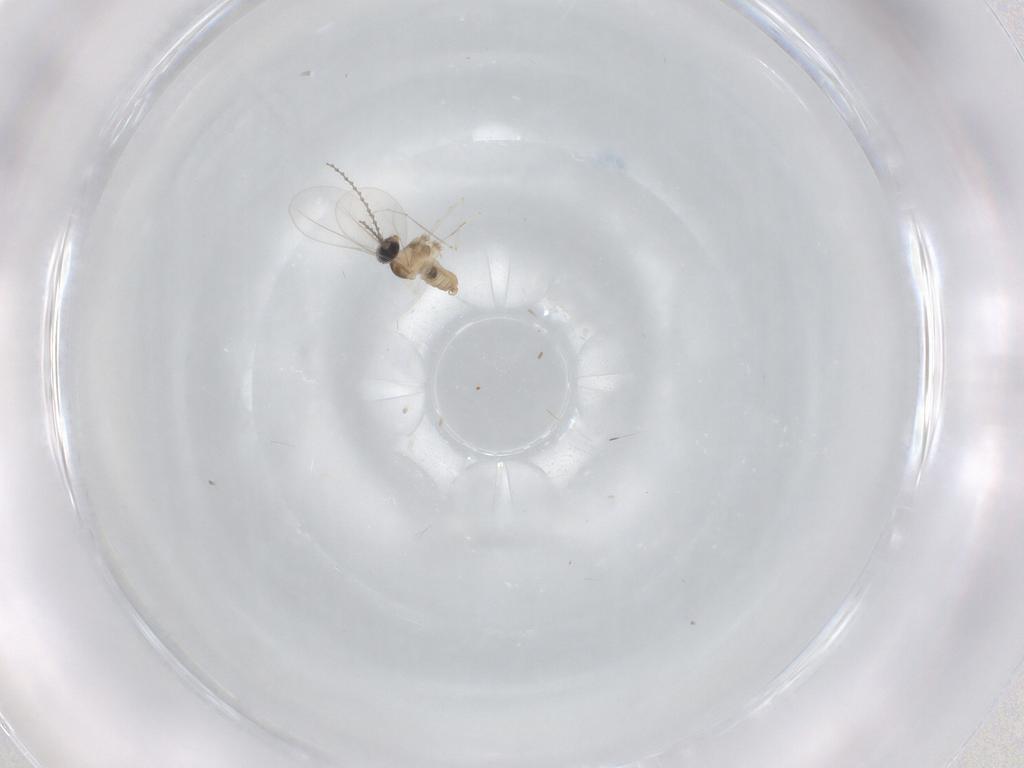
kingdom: Animalia
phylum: Arthropoda
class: Insecta
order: Diptera
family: Cecidomyiidae
